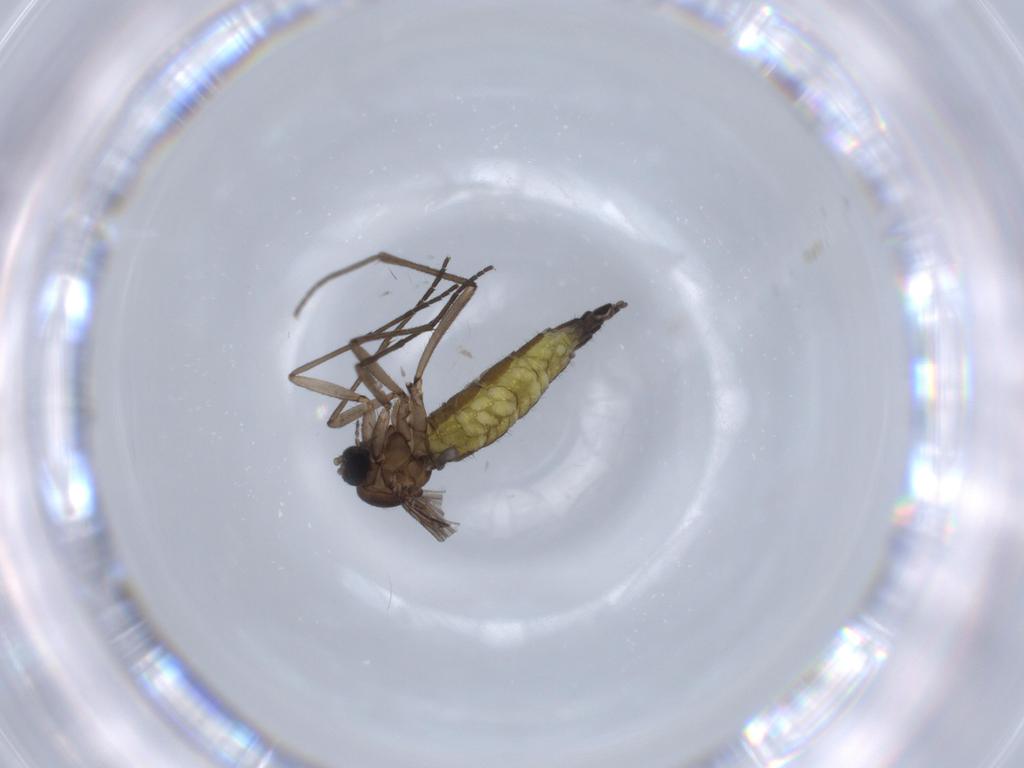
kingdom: Animalia
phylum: Arthropoda
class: Insecta
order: Diptera
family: Sciaridae
